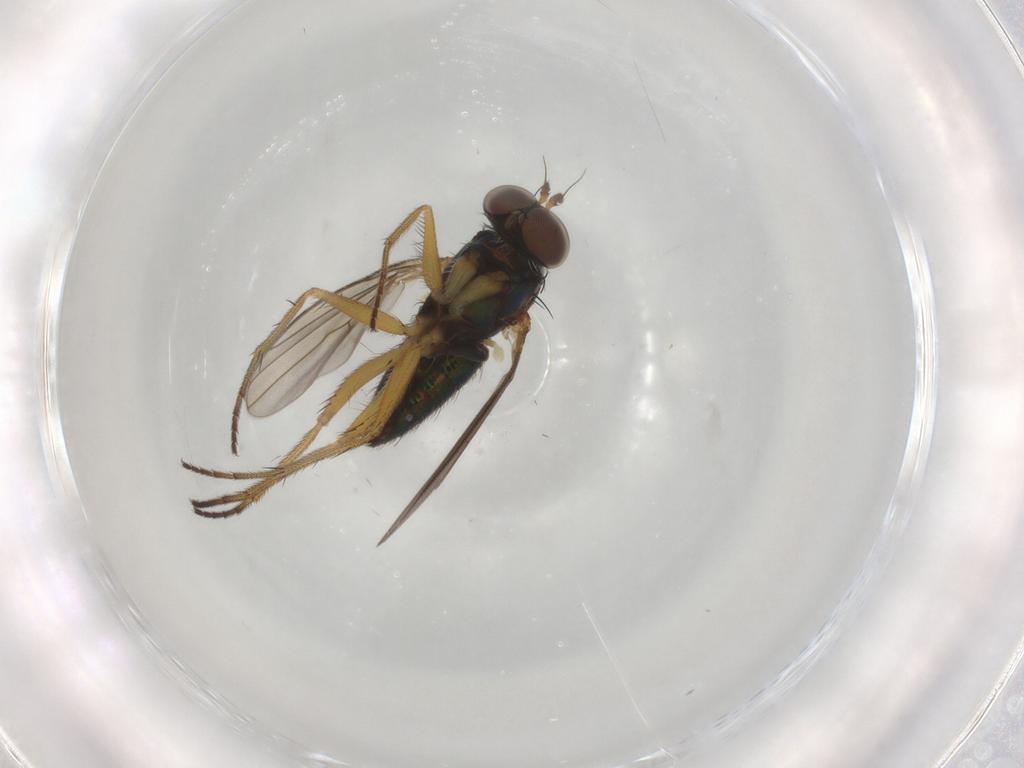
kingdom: Animalia
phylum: Arthropoda
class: Insecta
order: Diptera
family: Dolichopodidae
